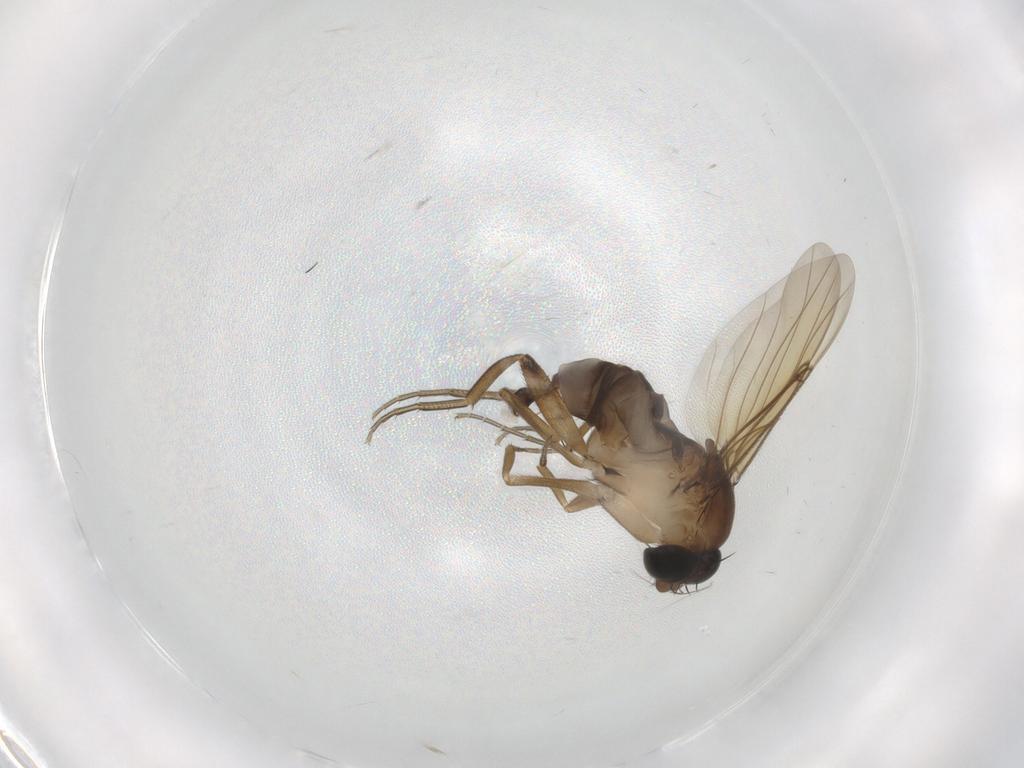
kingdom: Animalia
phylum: Arthropoda
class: Insecta
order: Diptera
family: Phoridae
